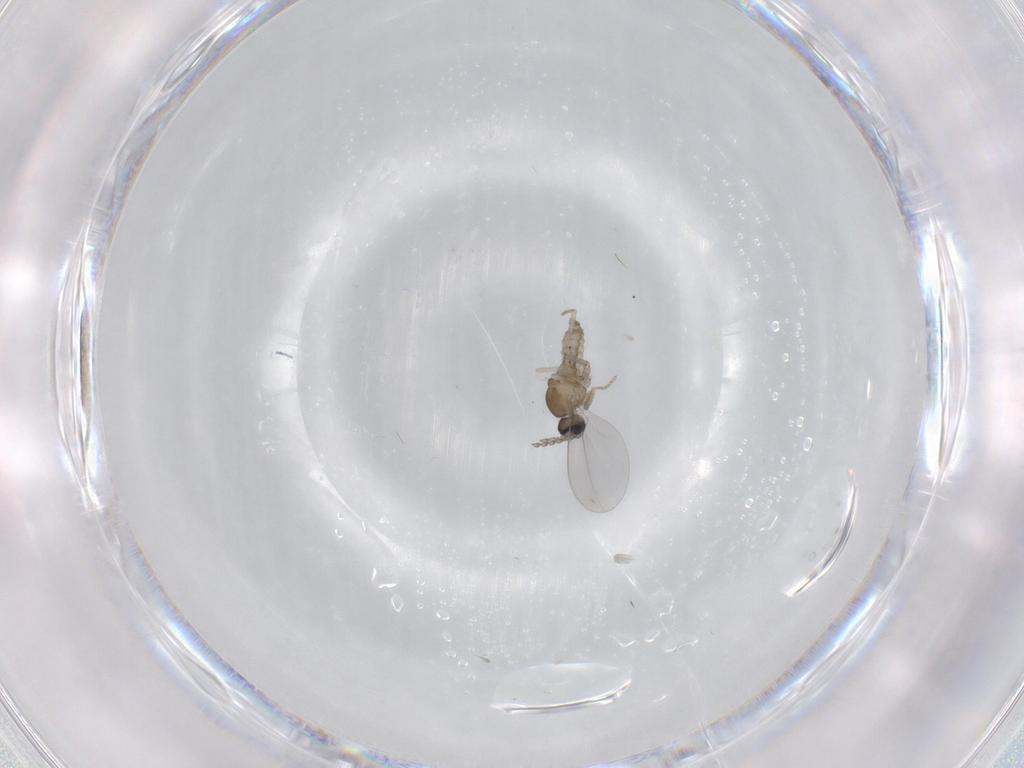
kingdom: Animalia
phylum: Arthropoda
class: Insecta
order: Diptera
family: Cecidomyiidae
